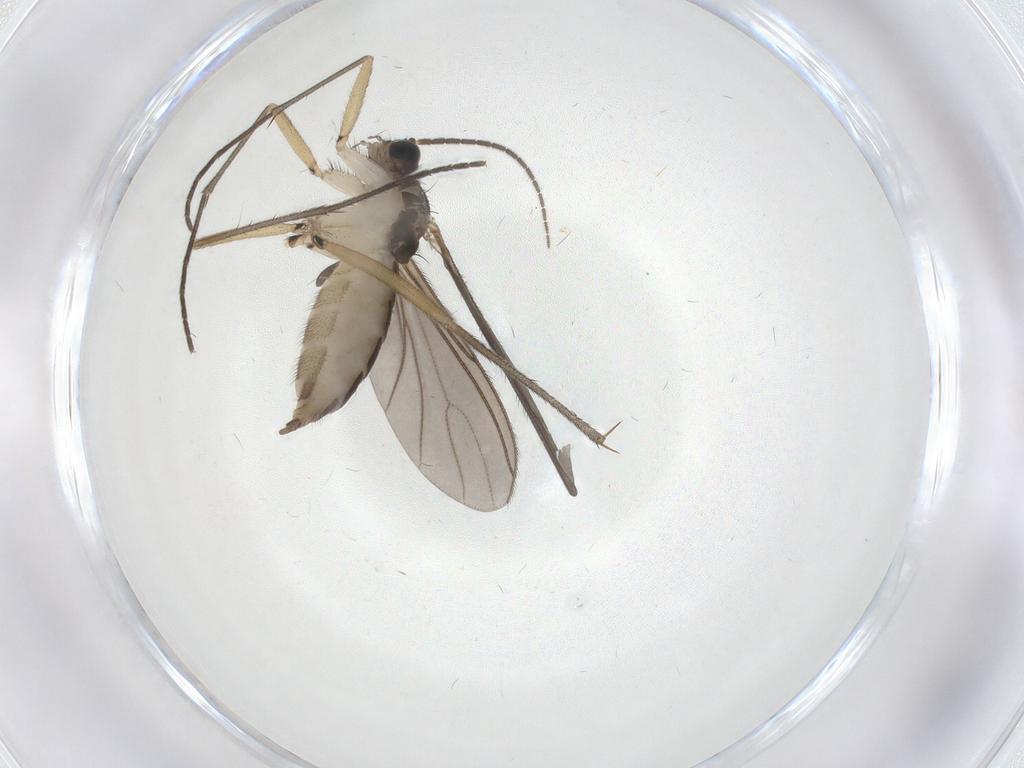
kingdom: Animalia
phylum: Arthropoda
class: Insecta
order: Diptera
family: Sciaridae
